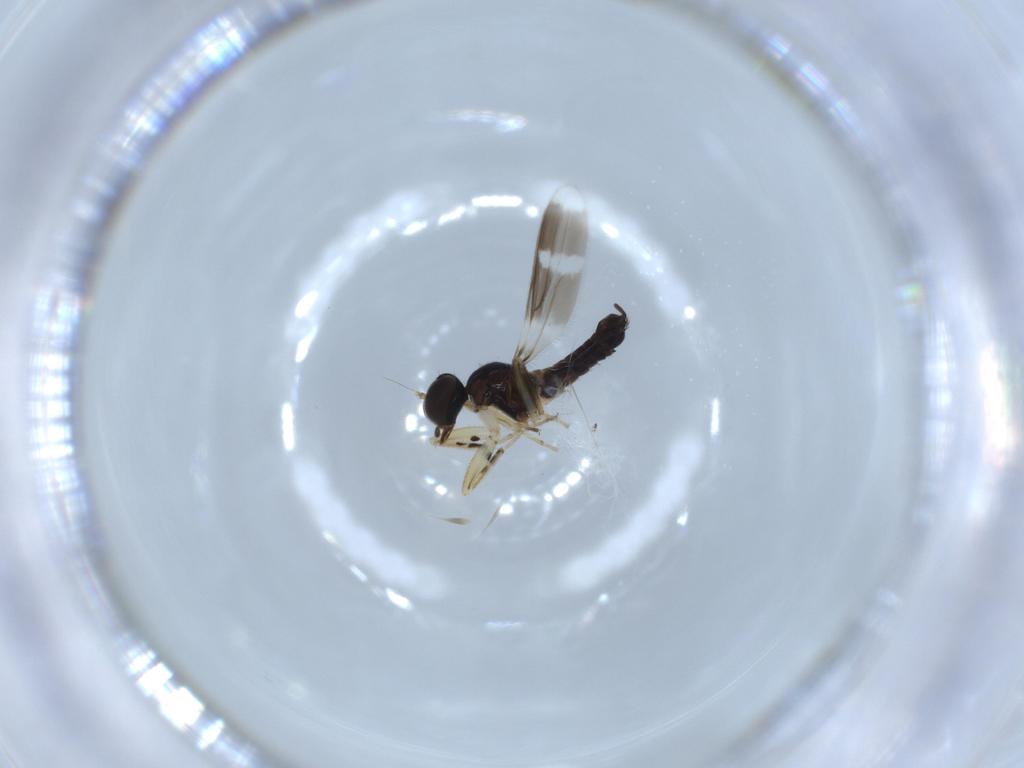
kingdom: Animalia
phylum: Arthropoda
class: Insecta
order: Diptera
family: Hybotidae
